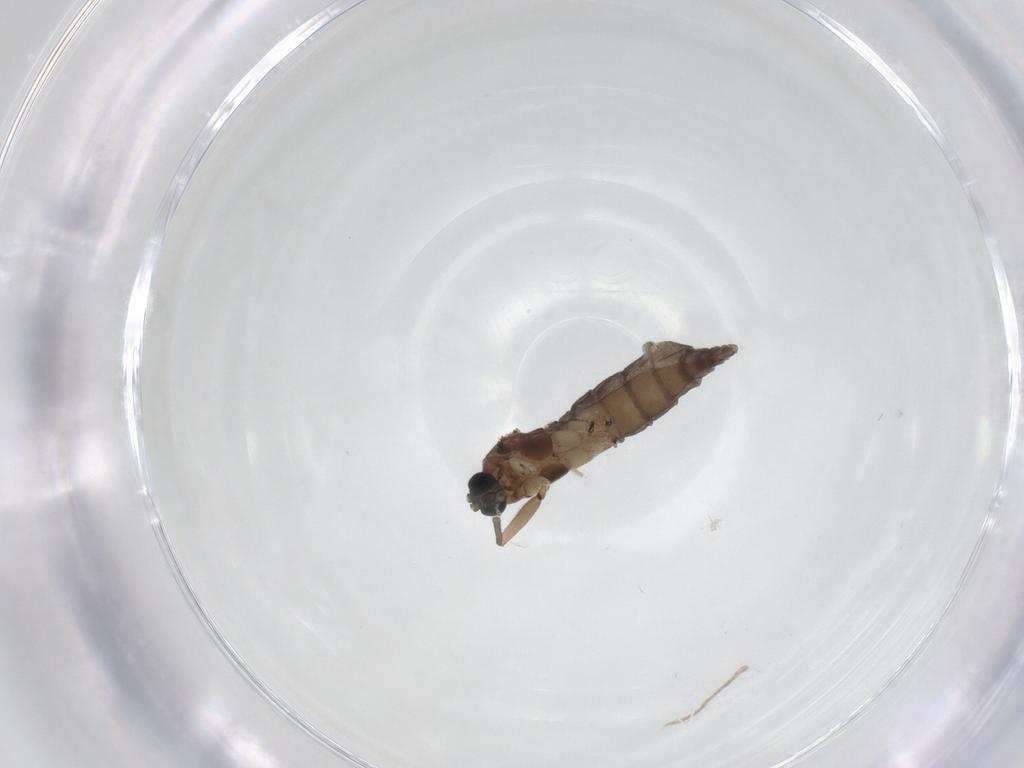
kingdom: Animalia
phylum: Arthropoda
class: Insecta
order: Diptera
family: Sciaridae
